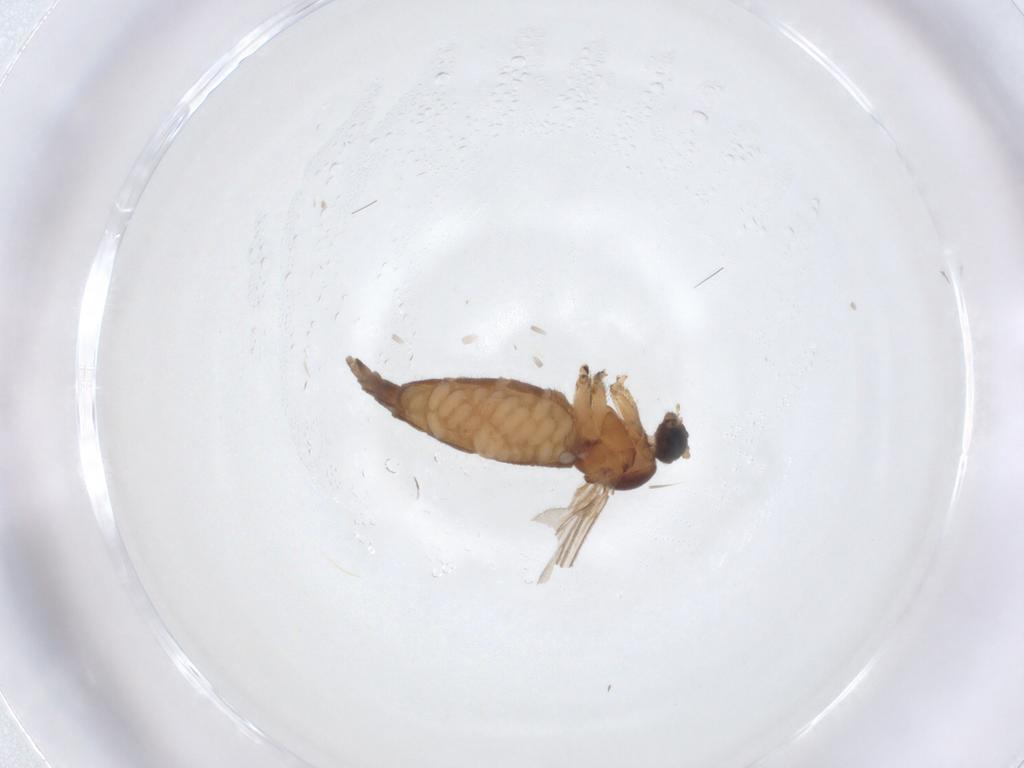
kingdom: Animalia
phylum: Arthropoda
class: Insecta
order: Diptera
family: Sciaridae
